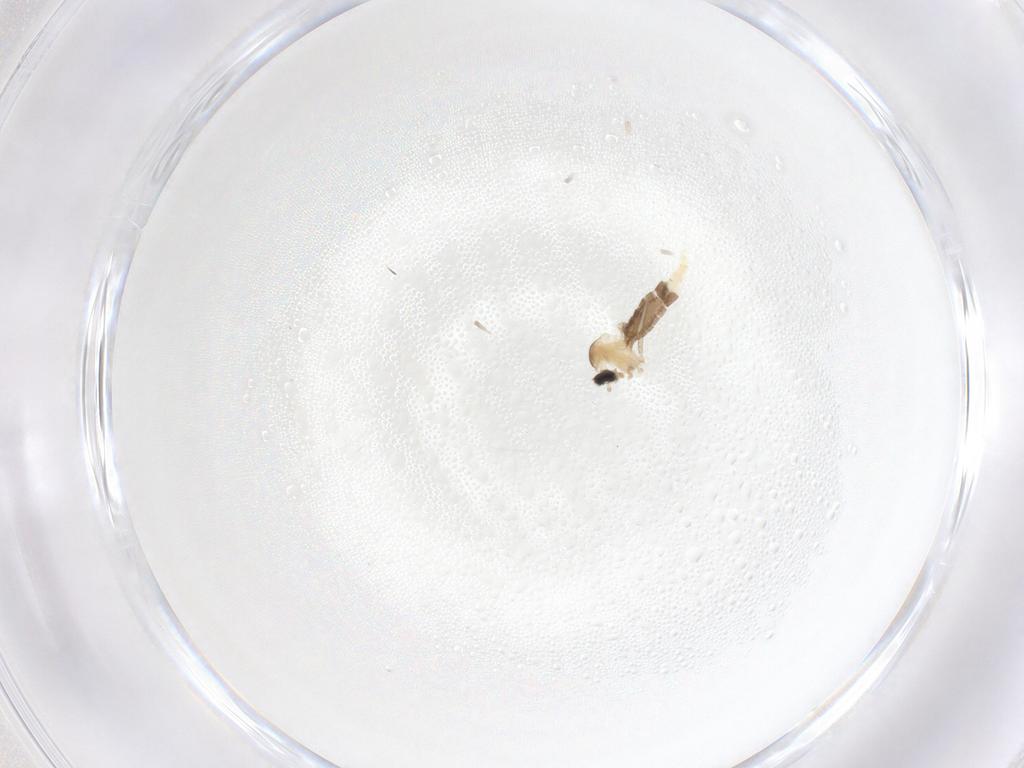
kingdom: Animalia
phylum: Arthropoda
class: Insecta
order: Diptera
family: Cecidomyiidae
